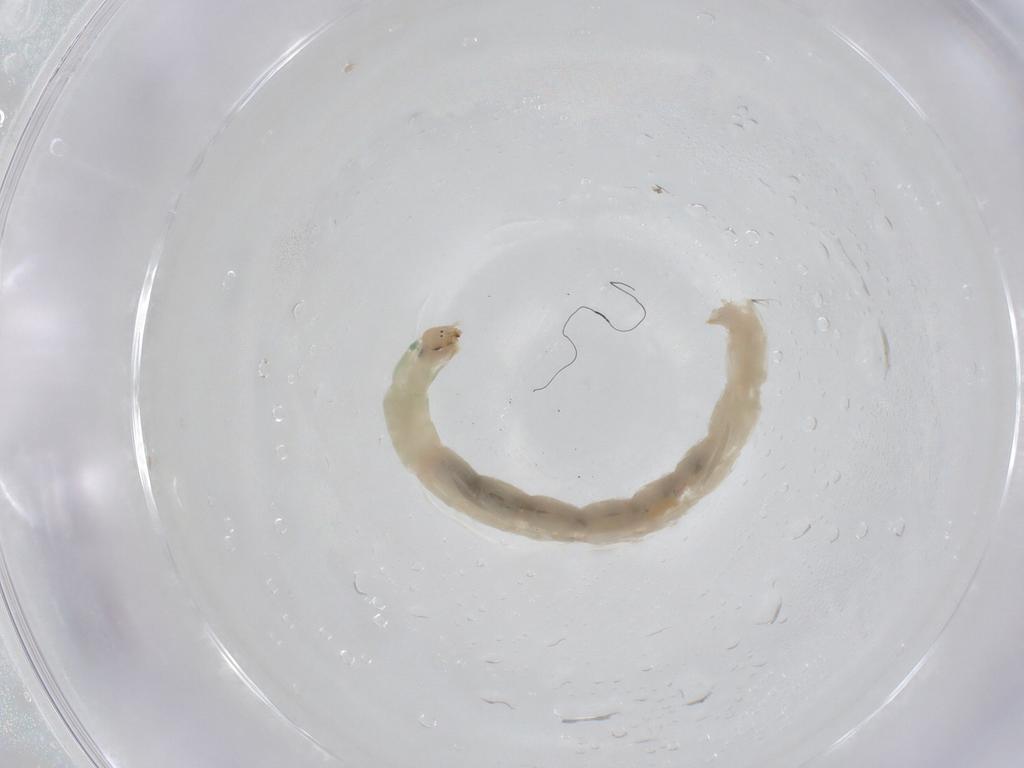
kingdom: Animalia
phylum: Arthropoda
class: Insecta
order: Diptera
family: Chironomidae
